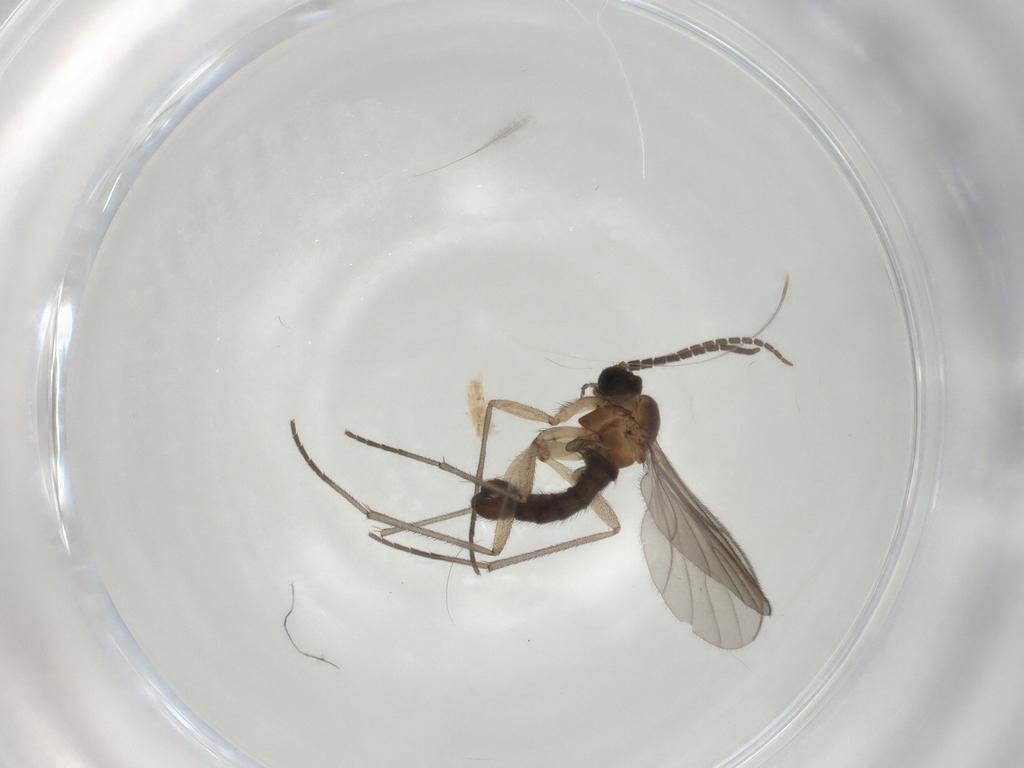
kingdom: Animalia
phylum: Arthropoda
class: Insecta
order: Diptera
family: Sciaridae
